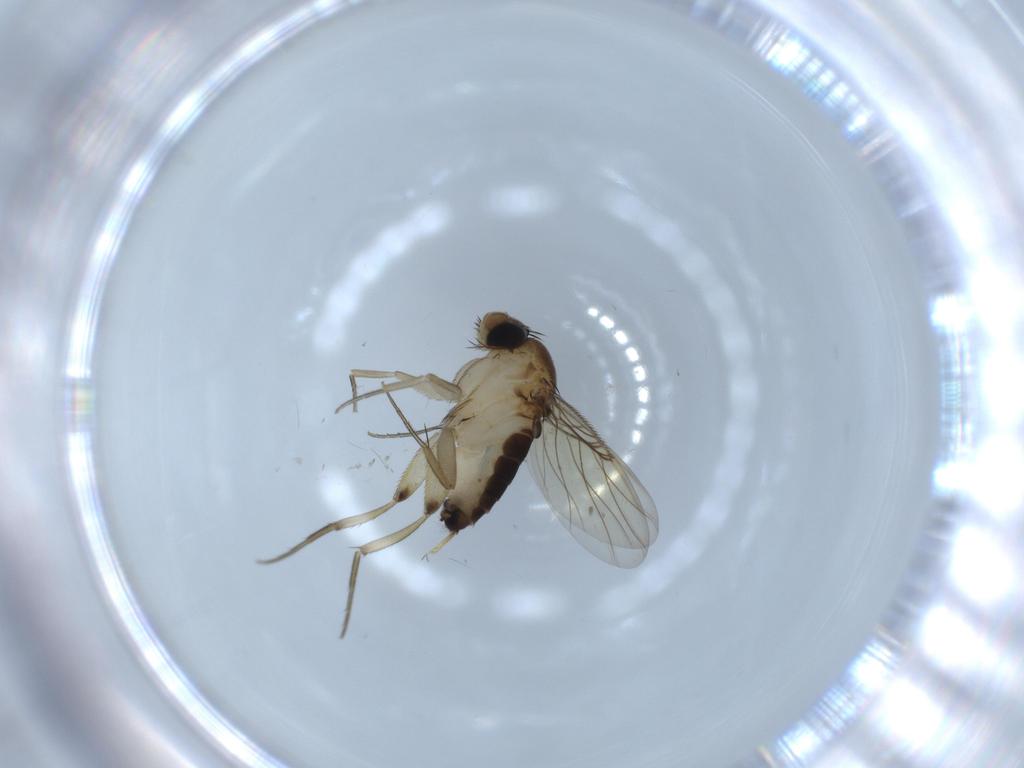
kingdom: Animalia
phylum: Arthropoda
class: Insecta
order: Diptera
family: Phoridae
